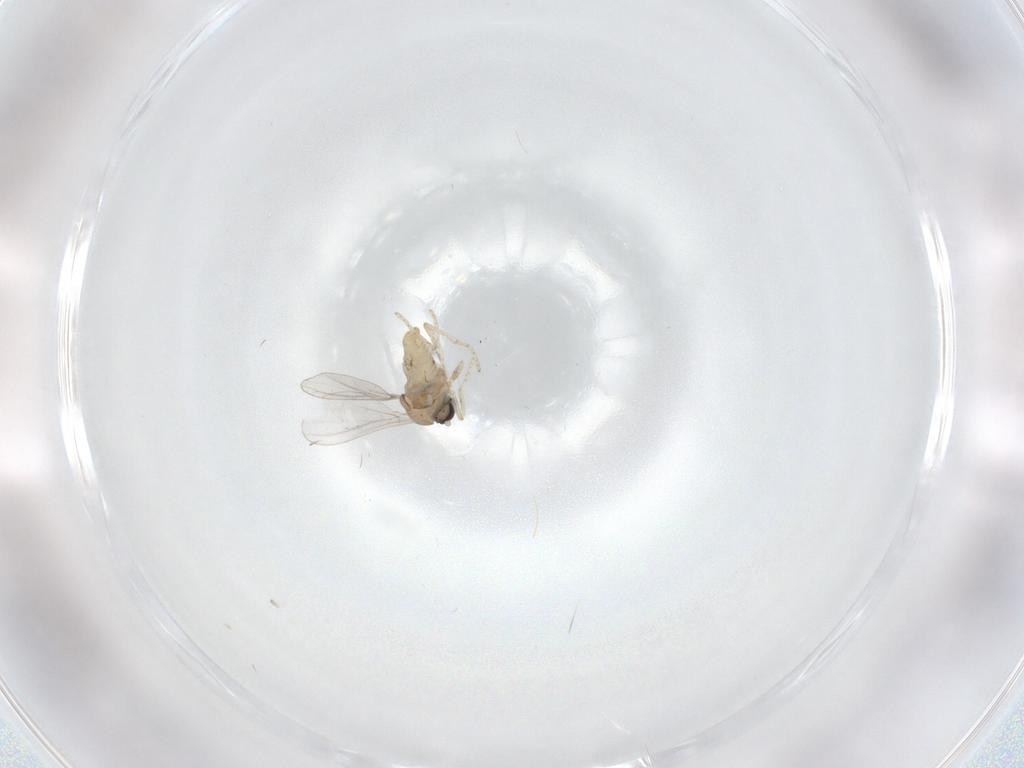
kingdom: Animalia
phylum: Arthropoda
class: Insecta
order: Diptera
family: Cecidomyiidae
